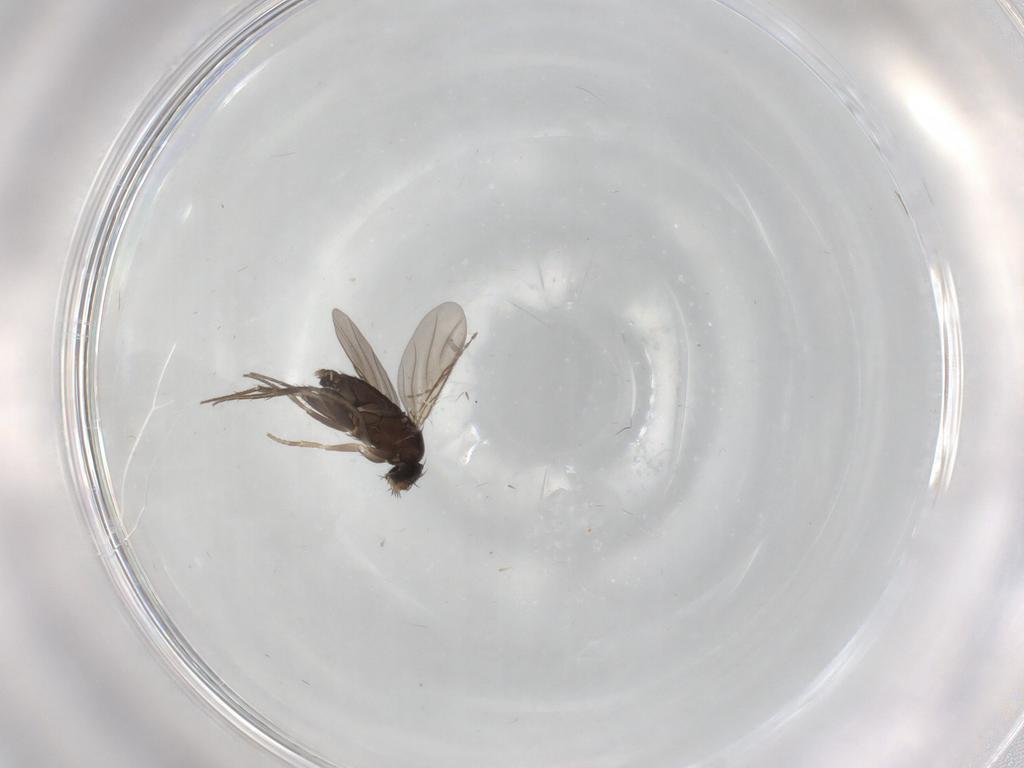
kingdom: Animalia
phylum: Arthropoda
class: Insecta
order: Diptera
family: Phoridae
